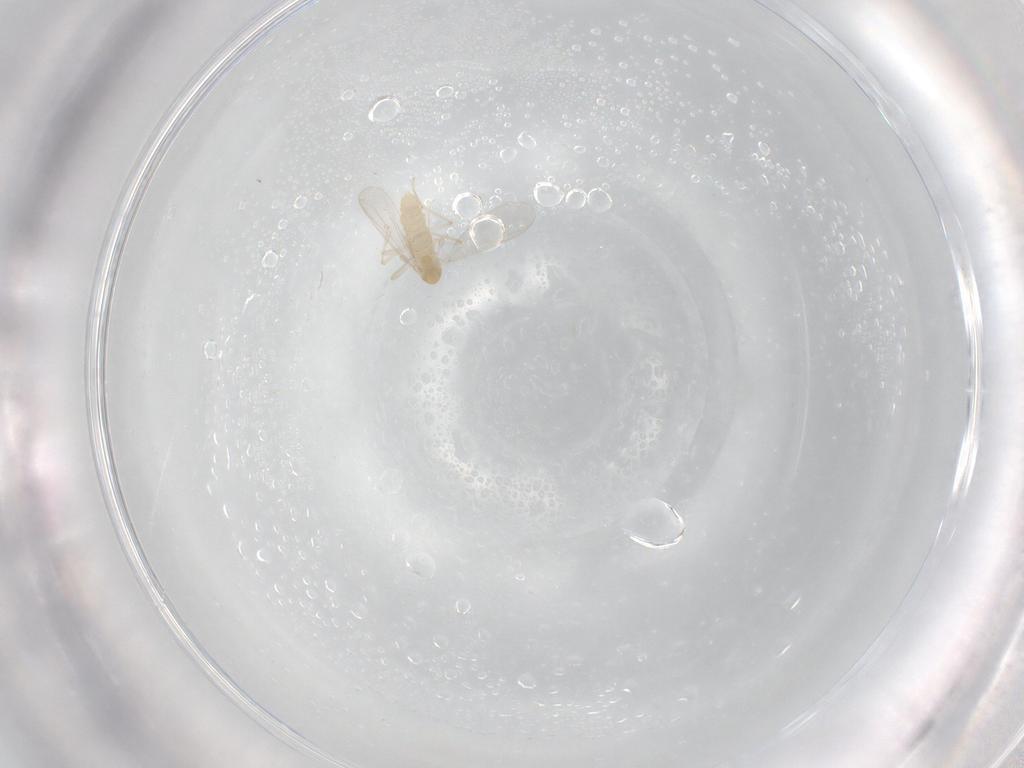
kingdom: Animalia
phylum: Arthropoda
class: Insecta
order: Diptera
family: Chironomidae
